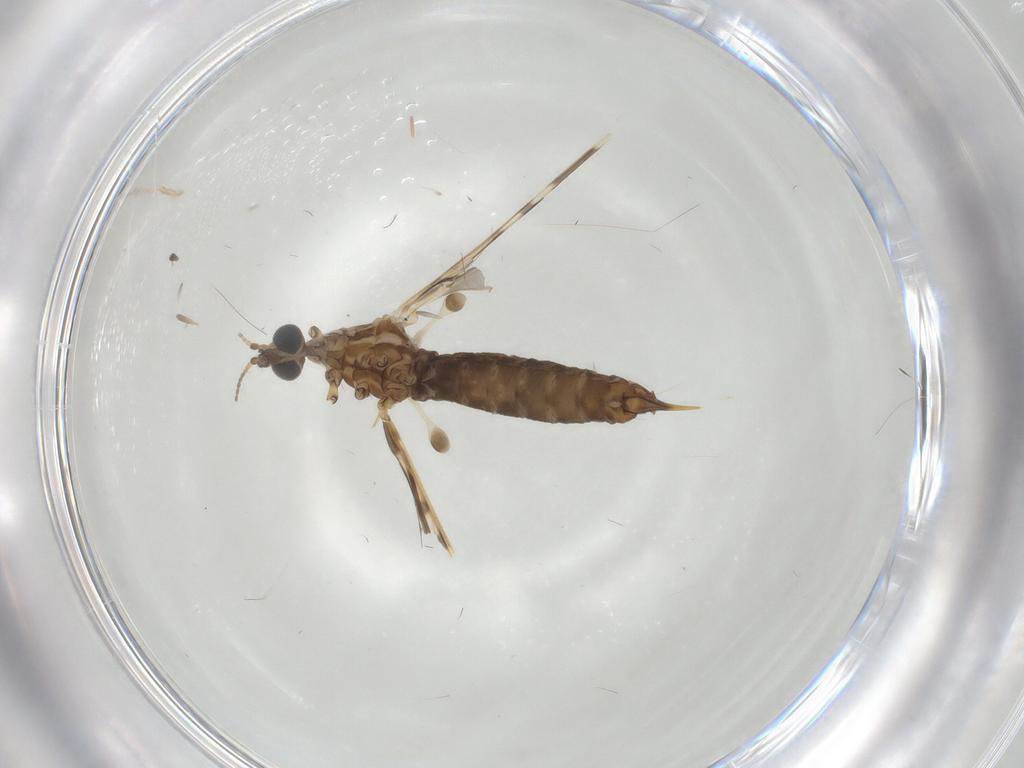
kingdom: Animalia
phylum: Arthropoda
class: Insecta
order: Diptera
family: Limoniidae
